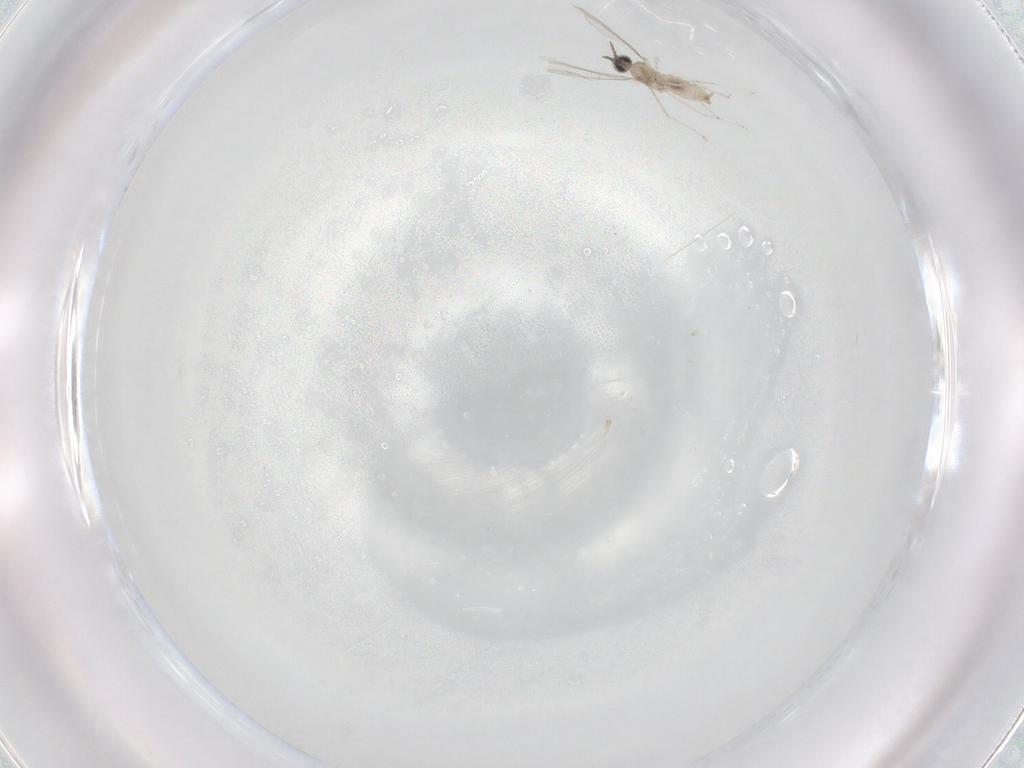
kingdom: Animalia
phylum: Arthropoda
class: Insecta
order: Diptera
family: Cecidomyiidae
